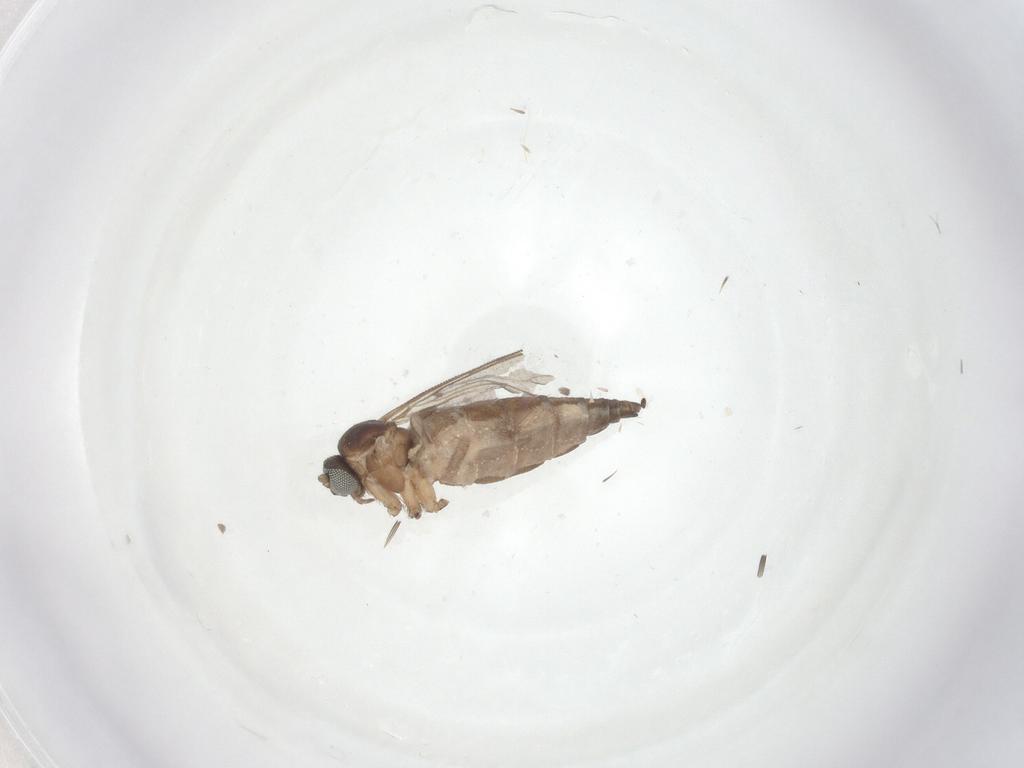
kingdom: Animalia
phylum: Arthropoda
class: Insecta
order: Diptera
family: Sciaridae
